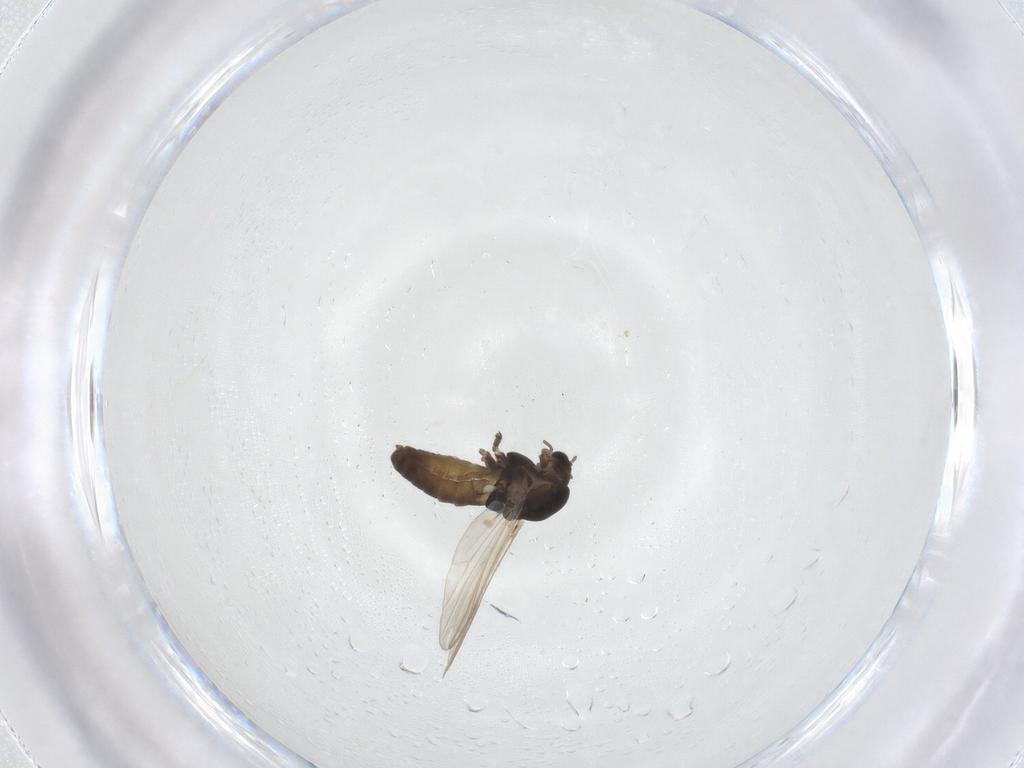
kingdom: Animalia
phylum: Arthropoda
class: Insecta
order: Diptera
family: Chironomidae
